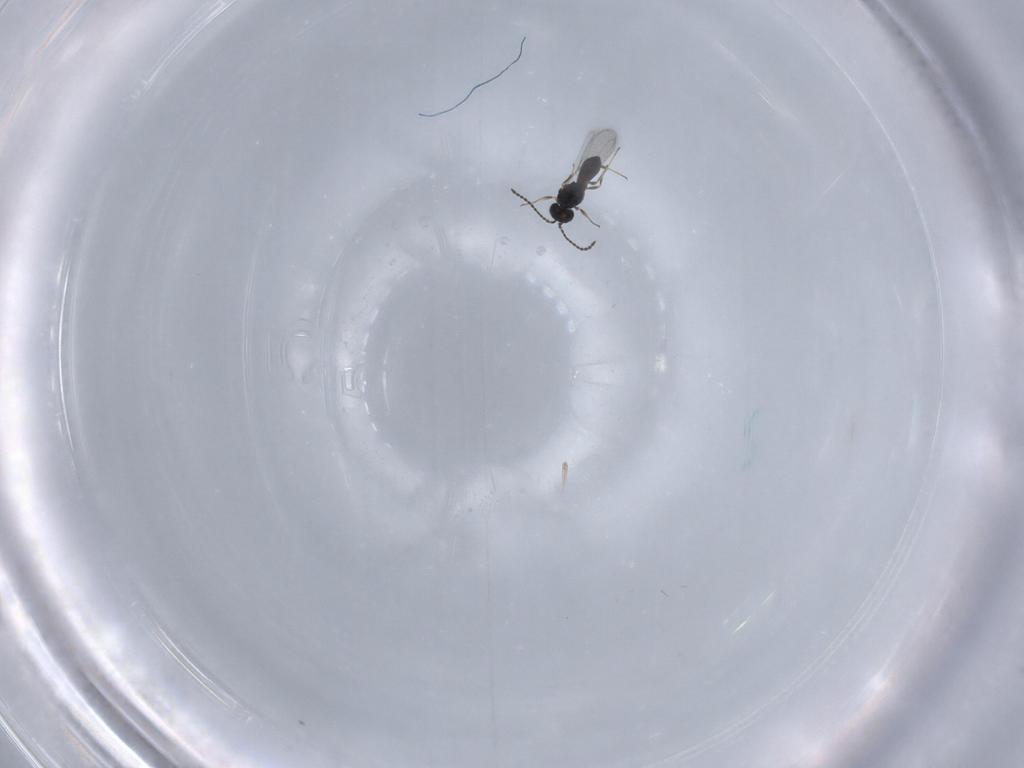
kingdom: Animalia
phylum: Arthropoda
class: Insecta
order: Hymenoptera
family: Scelionidae
